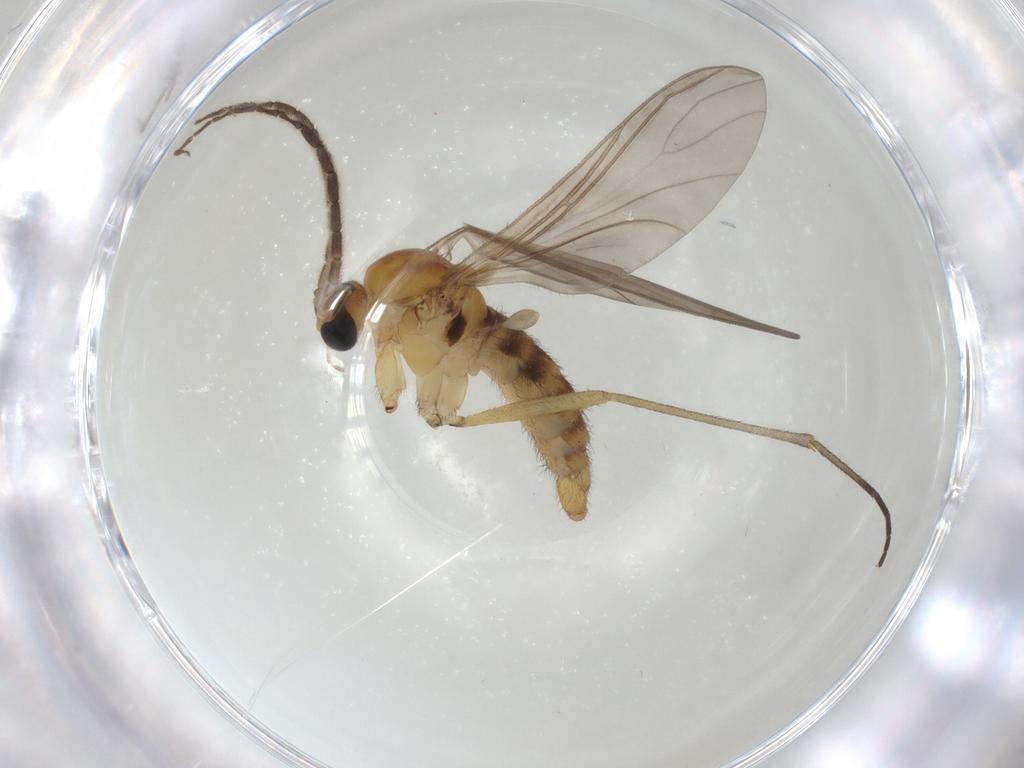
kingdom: Animalia
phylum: Arthropoda
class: Insecta
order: Diptera
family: Sciaridae
